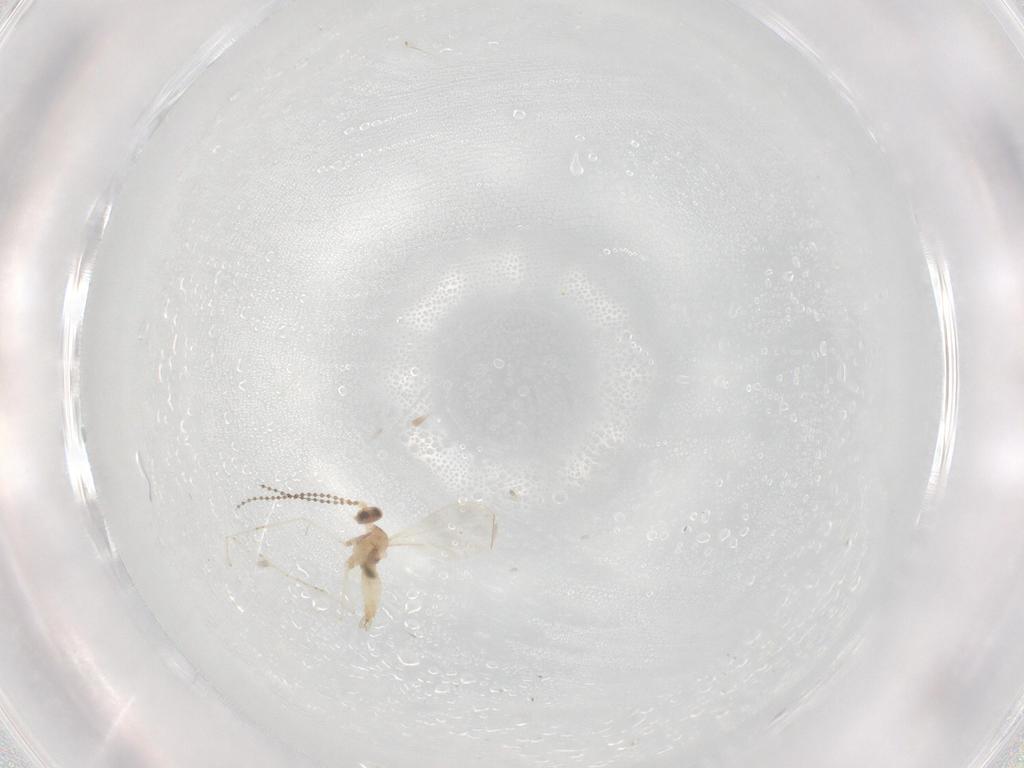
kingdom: Animalia
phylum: Arthropoda
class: Insecta
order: Diptera
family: Cecidomyiidae
